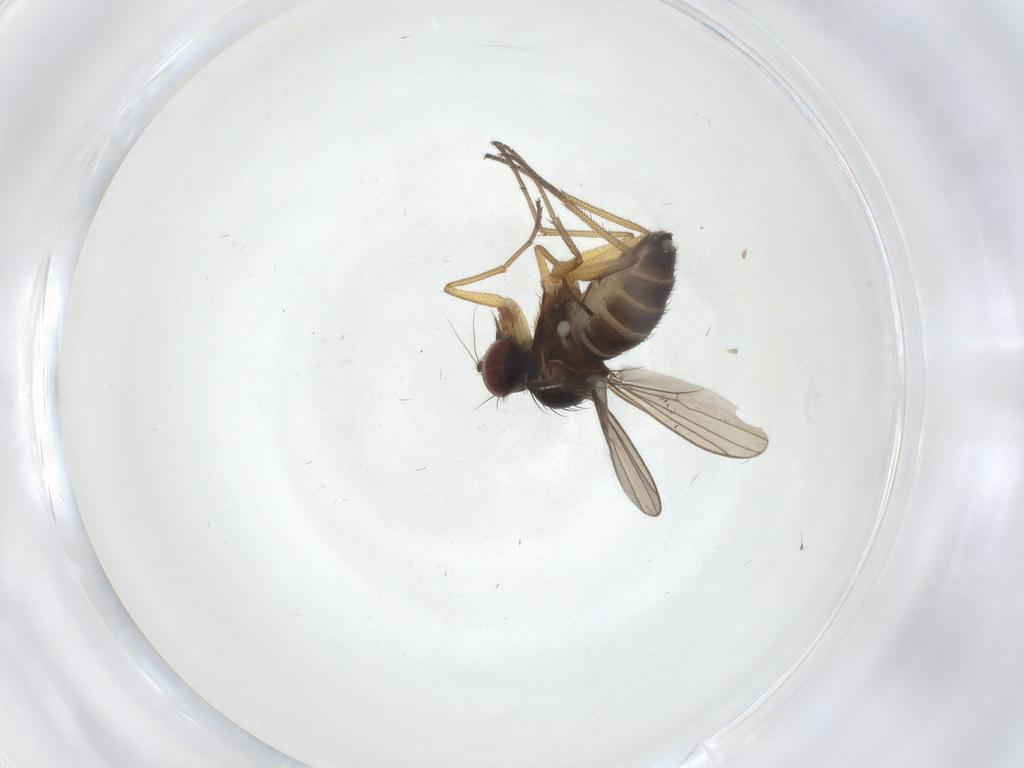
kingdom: Animalia
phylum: Arthropoda
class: Insecta
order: Diptera
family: Dolichopodidae
